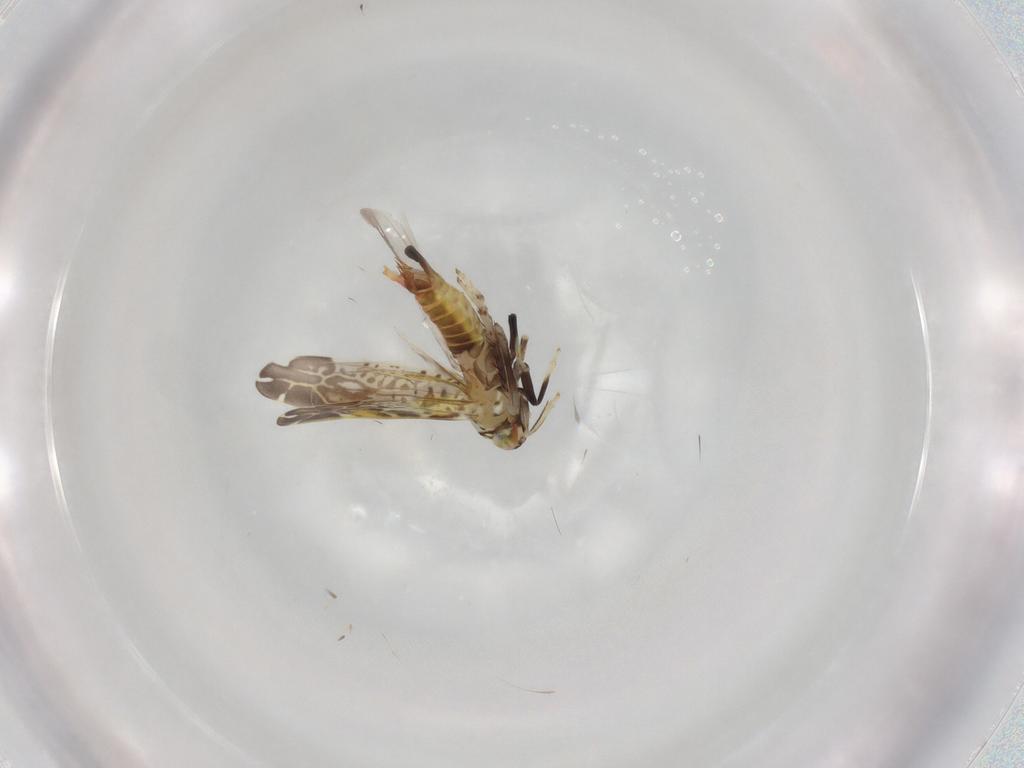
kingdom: Animalia
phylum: Arthropoda
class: Insecta
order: Hemiptera
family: Cicadellidae
